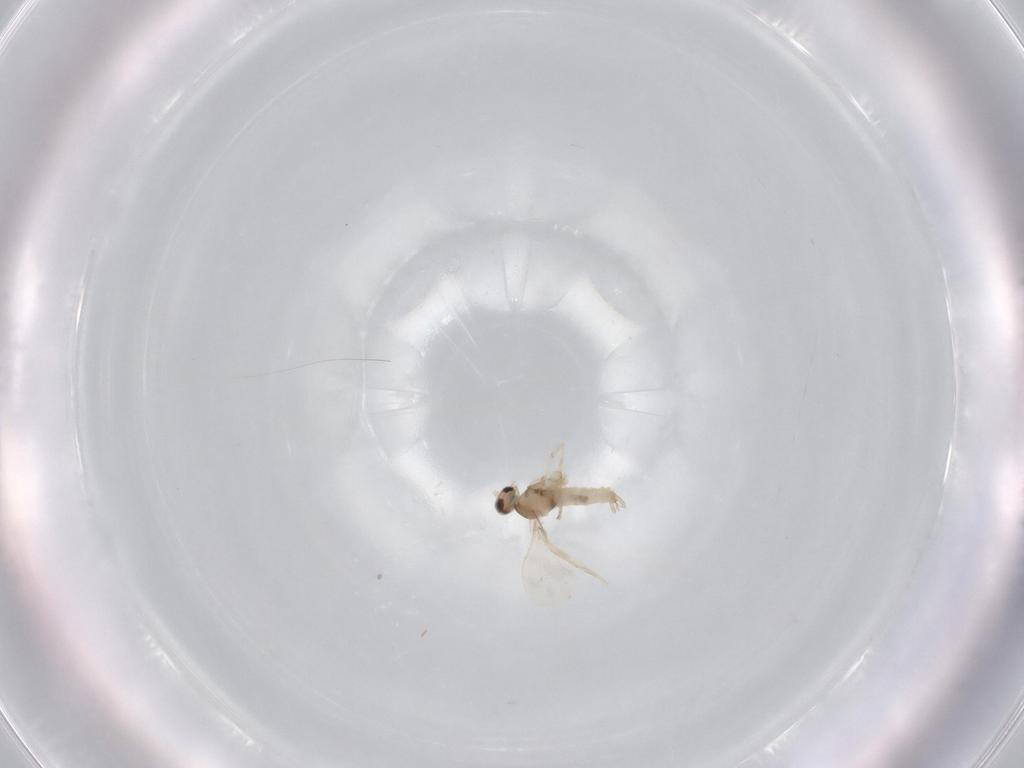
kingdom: Animalia
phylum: Arthropoda
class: Insecta
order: Diptera
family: Cecidomyiidae
